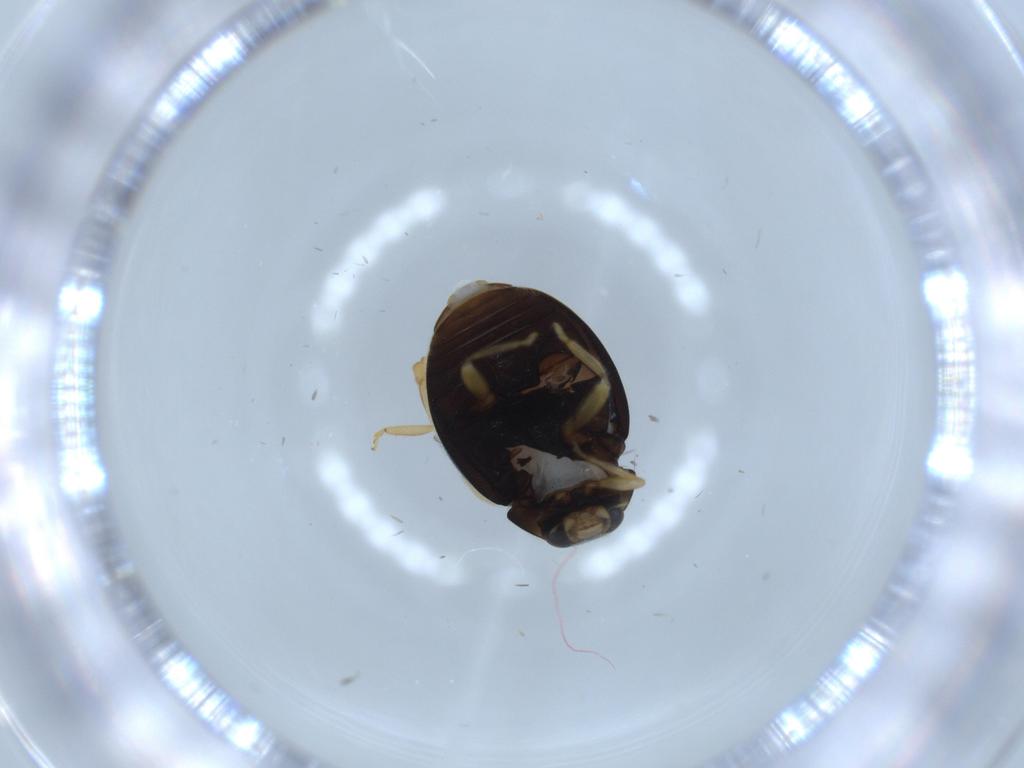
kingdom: Animalia
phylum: Arthropoda
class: Insecta
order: Coleoptera
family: Coccinellidae
